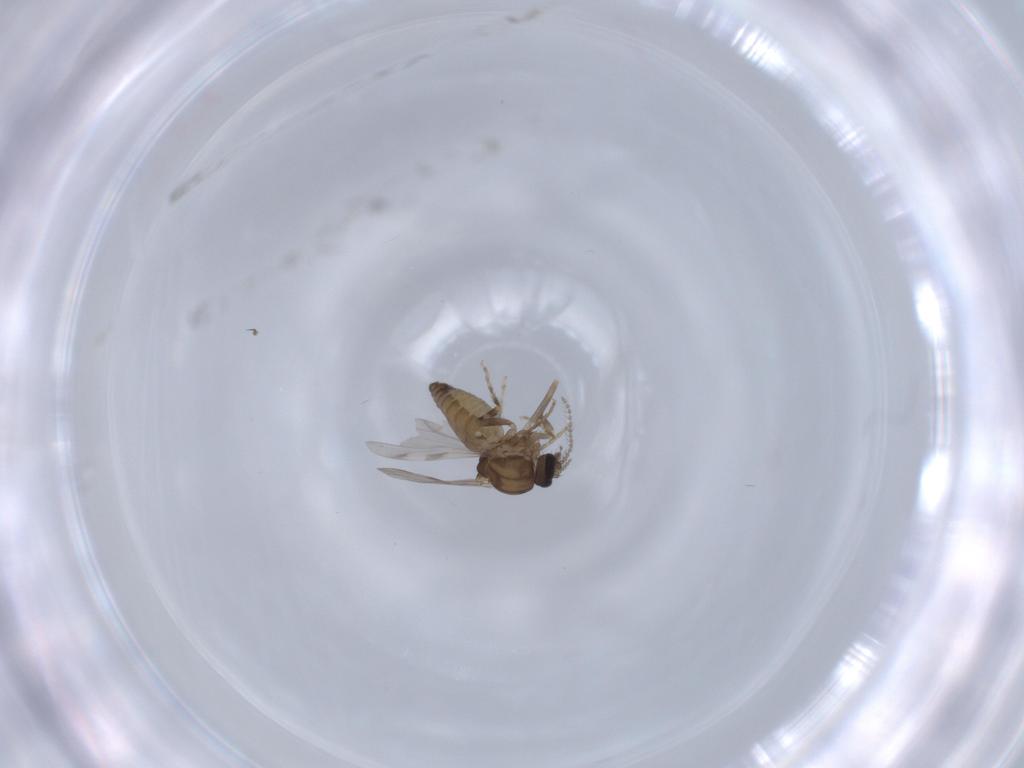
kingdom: Animalia
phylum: Arthropoda
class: Insecta
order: Diptera
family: Ceratopogonidae
